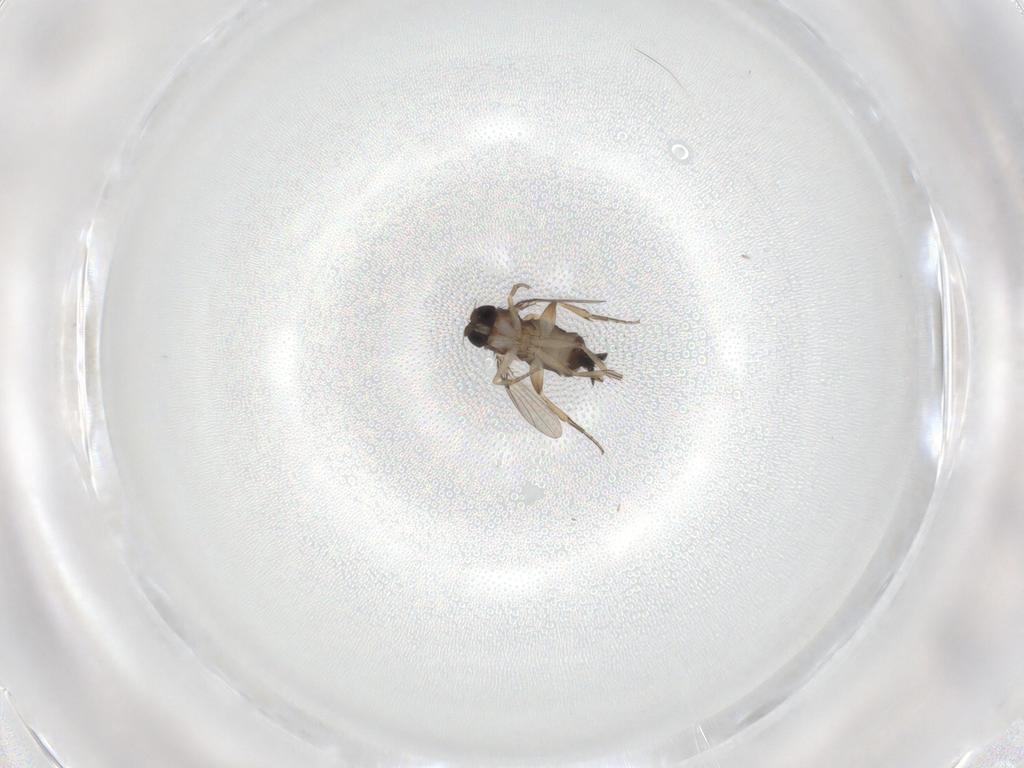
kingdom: Animalia
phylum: Arthropoda
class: Insecta
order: Diptera
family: Phoridae
